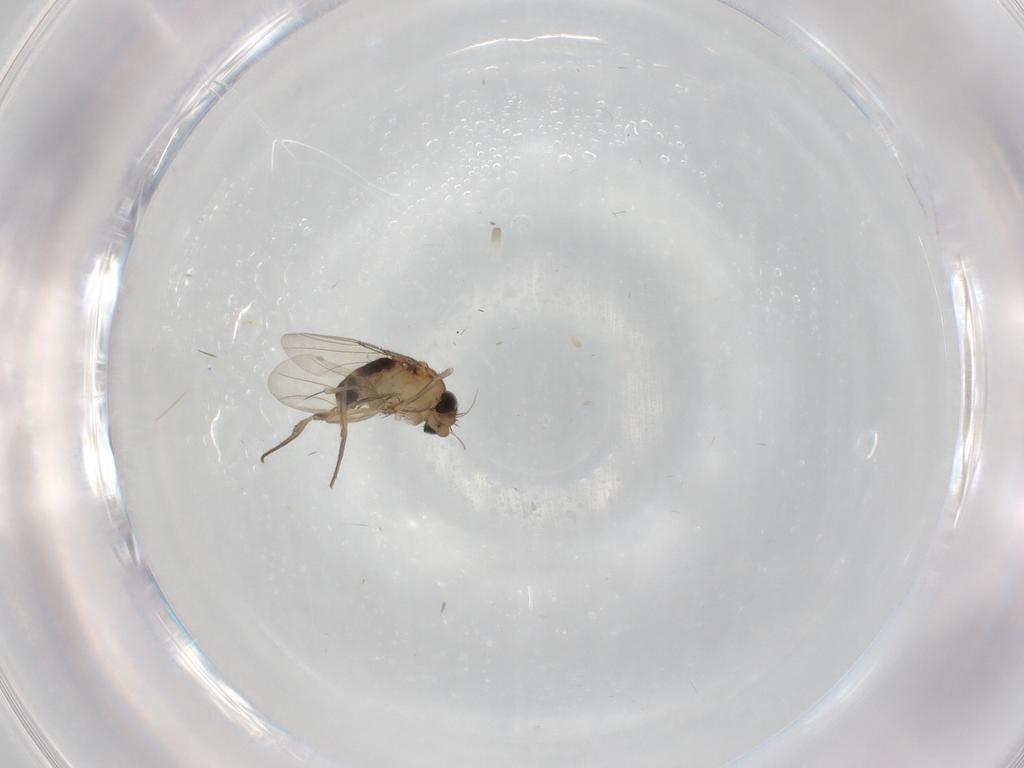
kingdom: Animalia
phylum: Arthropoda
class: Insecta
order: Diptera
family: Phoridae
